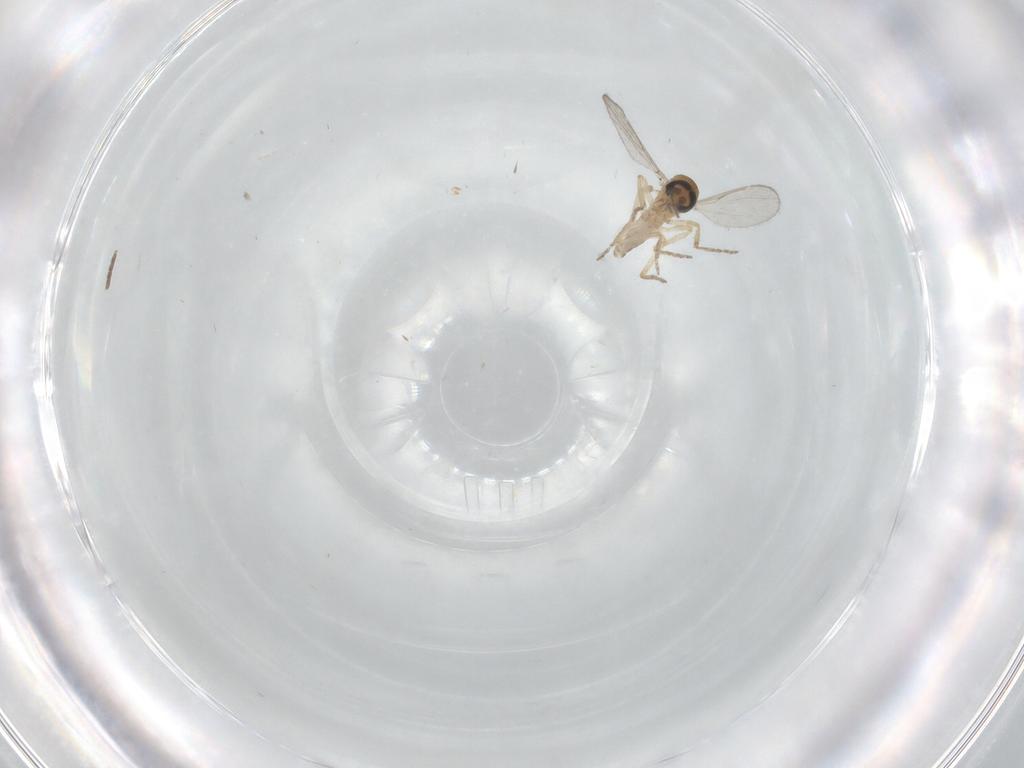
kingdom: Animalia
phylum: Arthropoda
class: Insecta
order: Diptera
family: Ceratopogonidae
